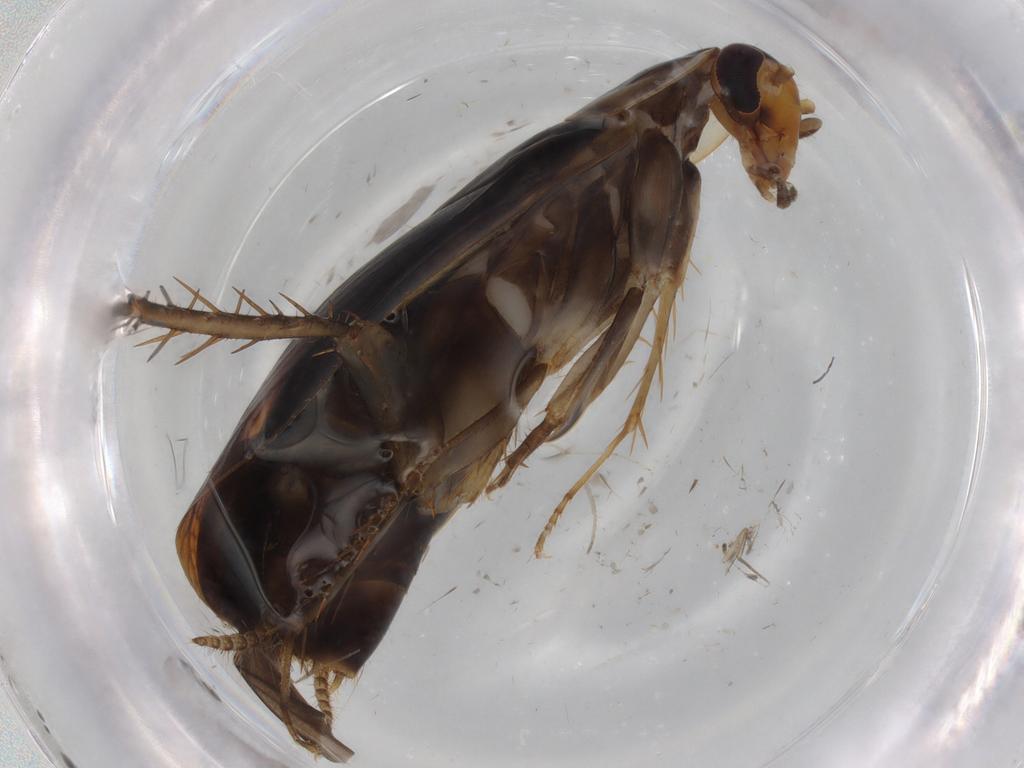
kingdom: Animalia
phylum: Arthropoda
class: Insecta
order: Blattodea
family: Ectobiidae
